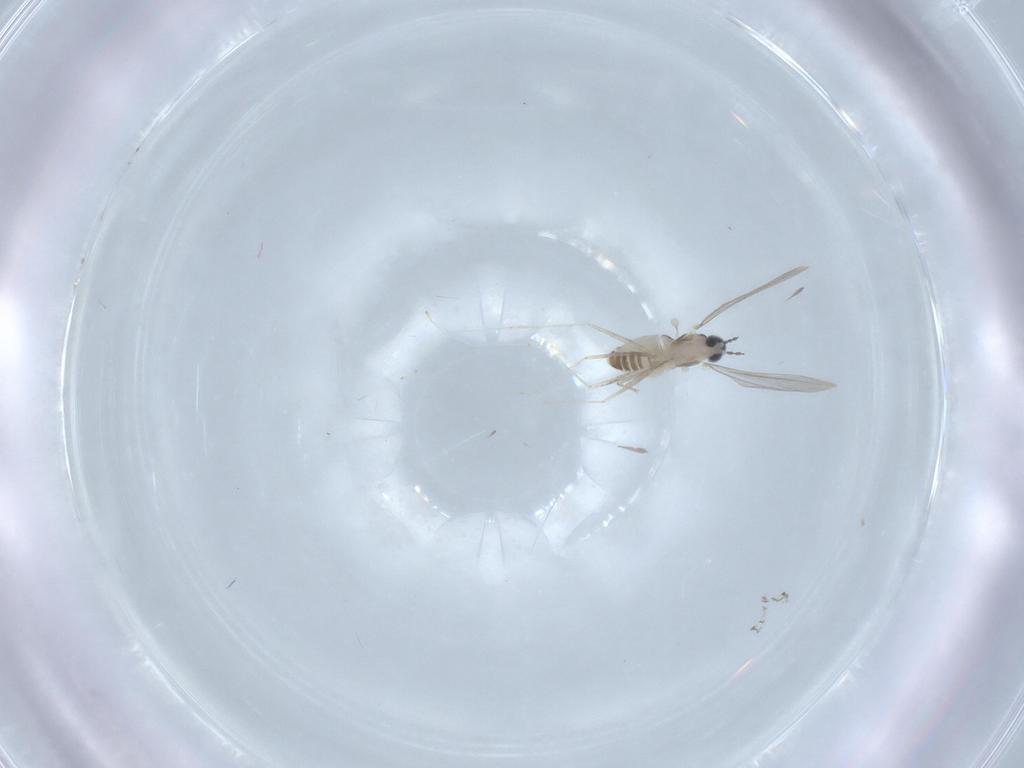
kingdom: Animalia
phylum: Arthropoda
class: Insecta
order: Diptera
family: Cecidomyiidae
